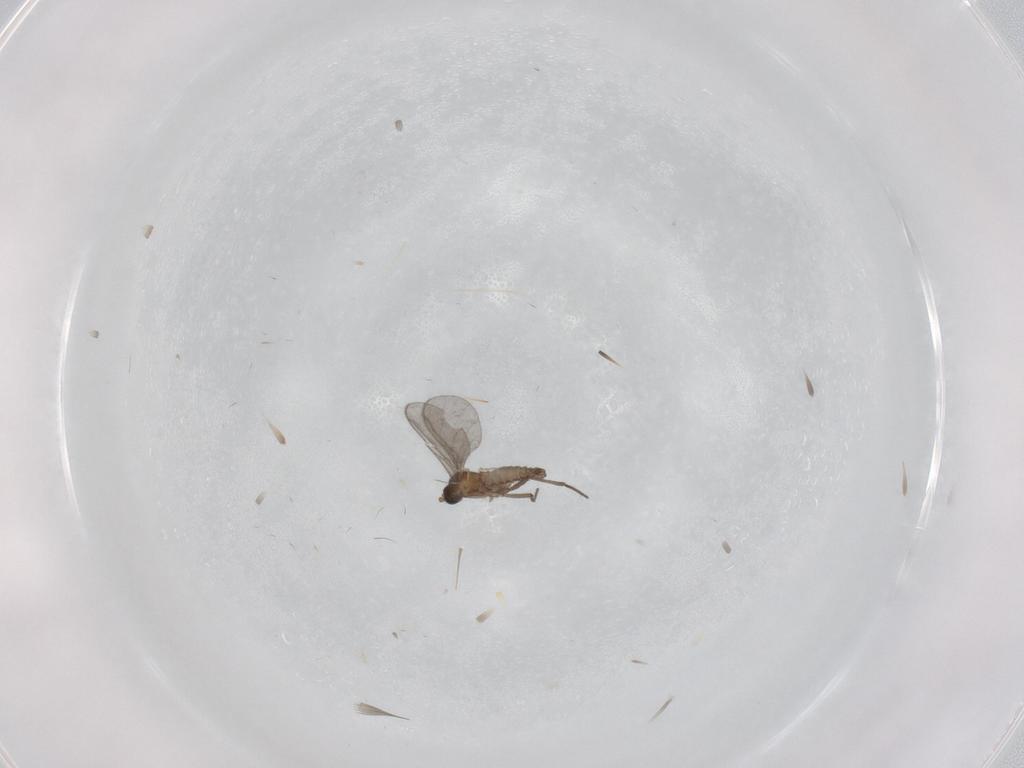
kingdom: Animalia
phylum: Arthropoda
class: Insecta
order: Diptera
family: Sciaridae
